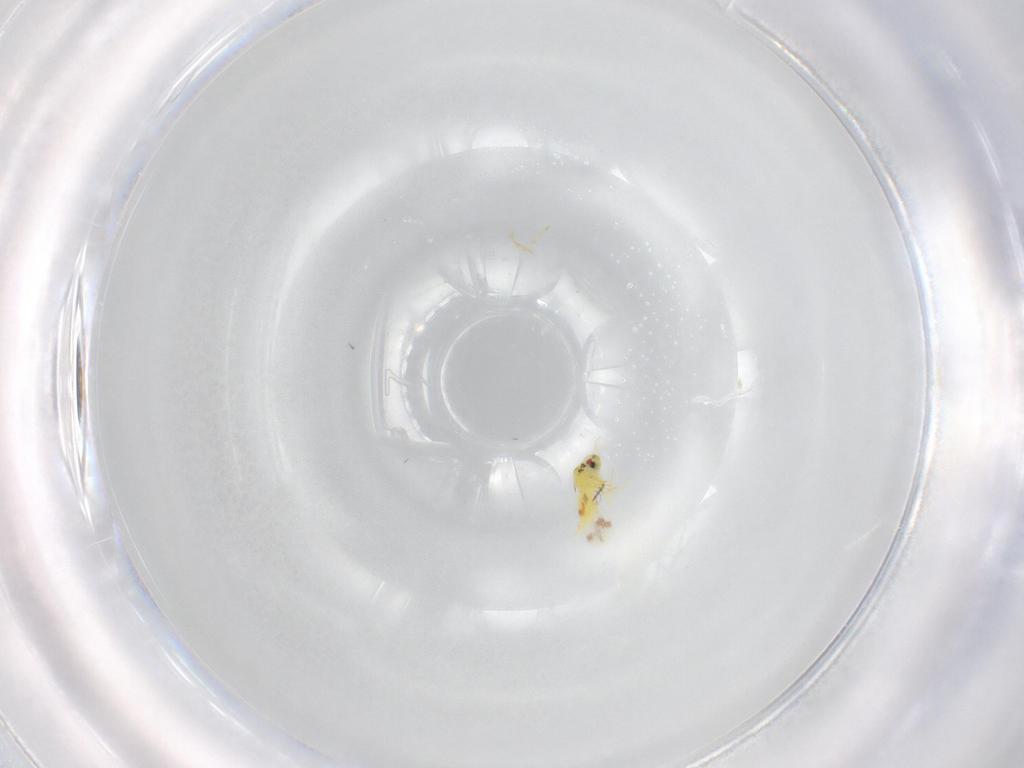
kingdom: Animalia
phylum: Arthropoda
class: Insecta
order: Hemiptera
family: Aleyrodidae
